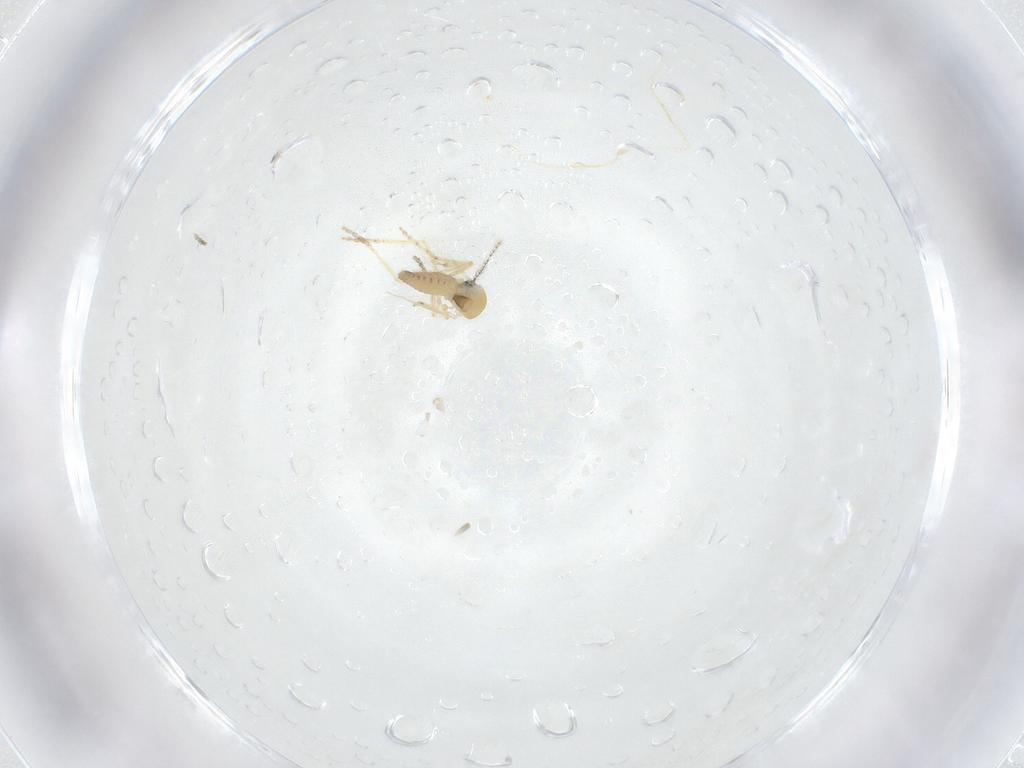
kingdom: Animalia
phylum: Arthropoda
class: Insecta
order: Diptera
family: Ceratopogonidae
